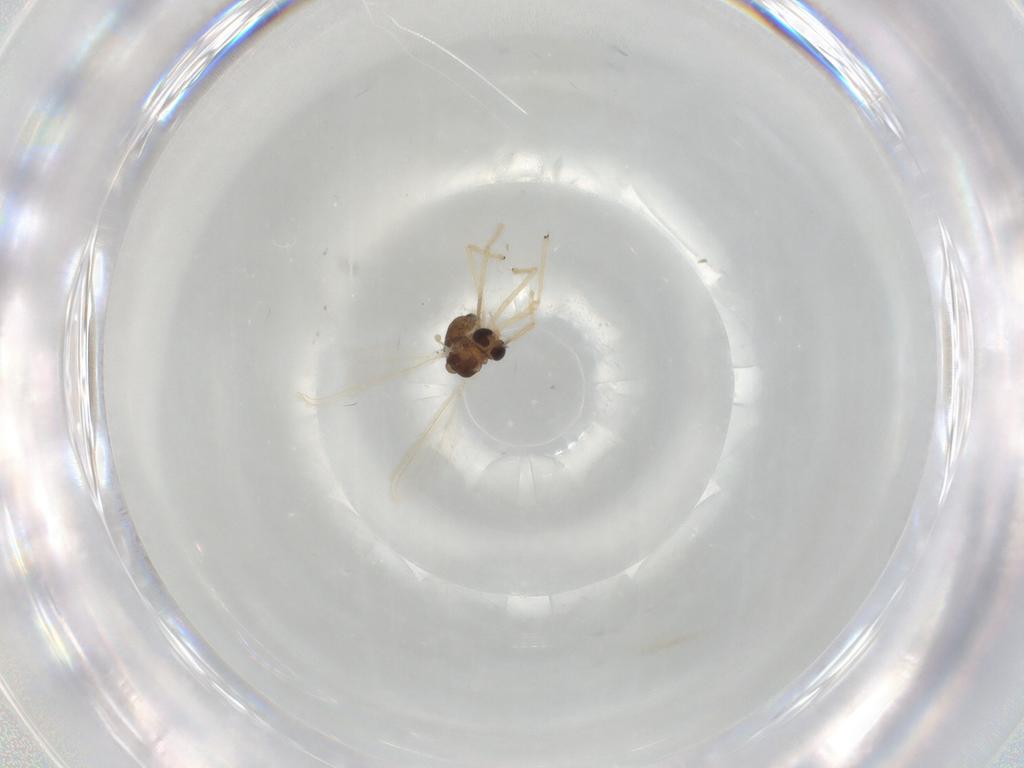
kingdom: Animalia
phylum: Arthropoda
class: Insecta
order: Diptera
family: Chironomidae
